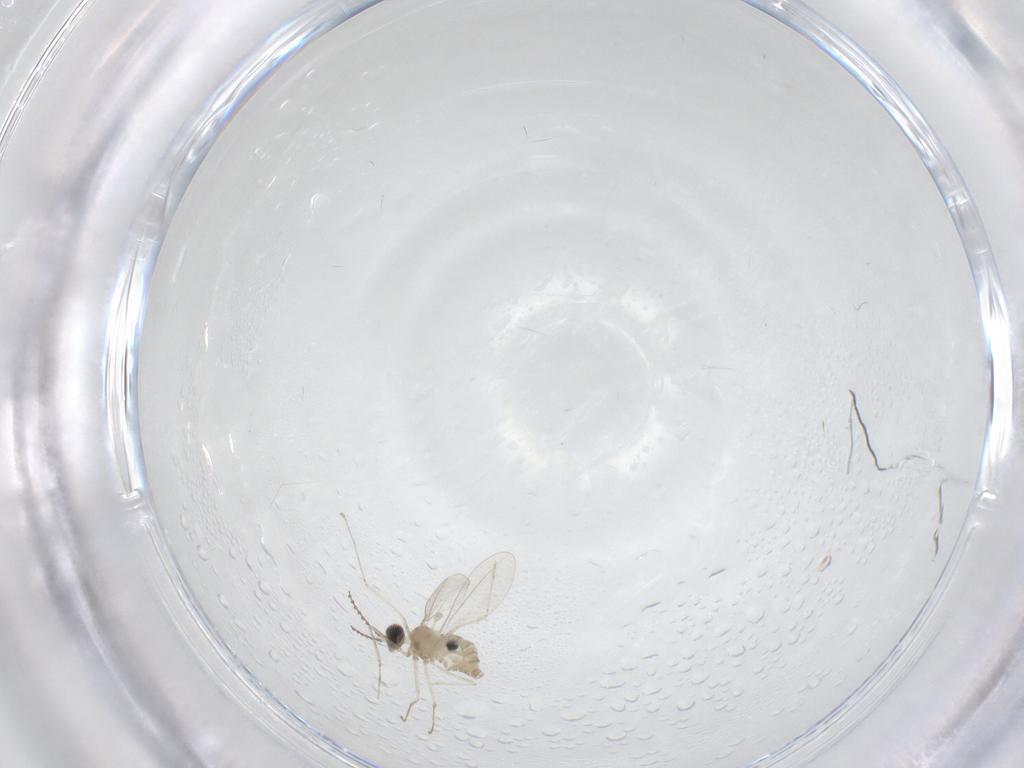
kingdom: Animalia
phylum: Arthropoda
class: Insecta
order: Diptera
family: Cecidomyiidae
